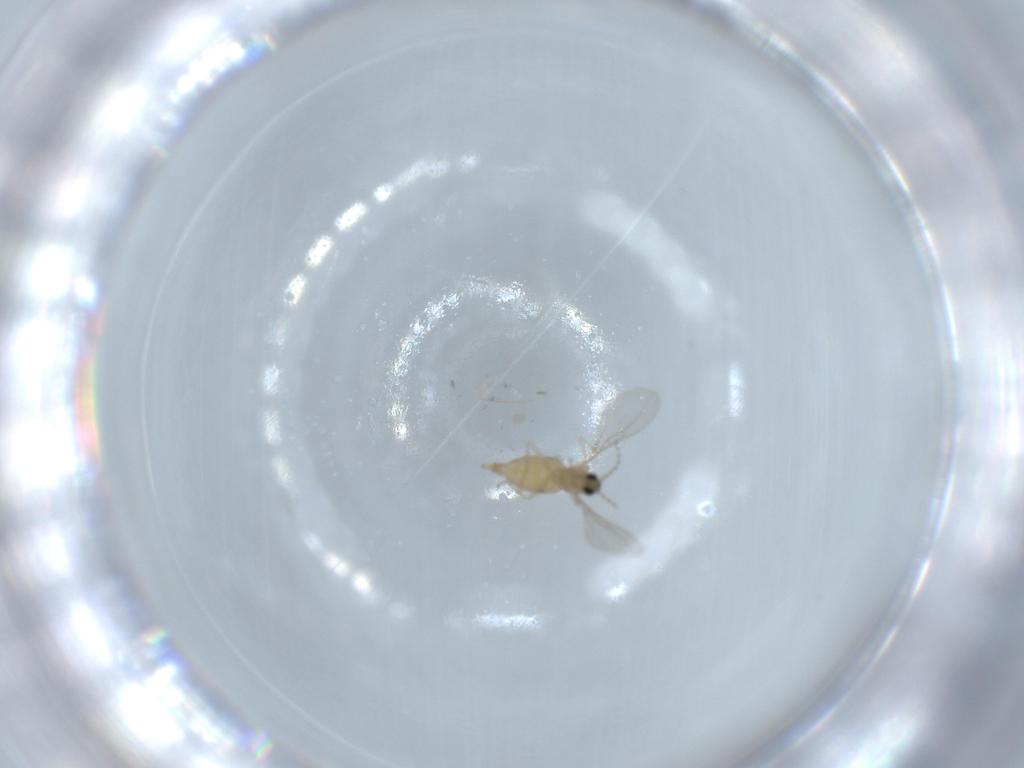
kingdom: Animalia
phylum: Arthropoda
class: Insecta
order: Diptera
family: Cecidomyiidae
